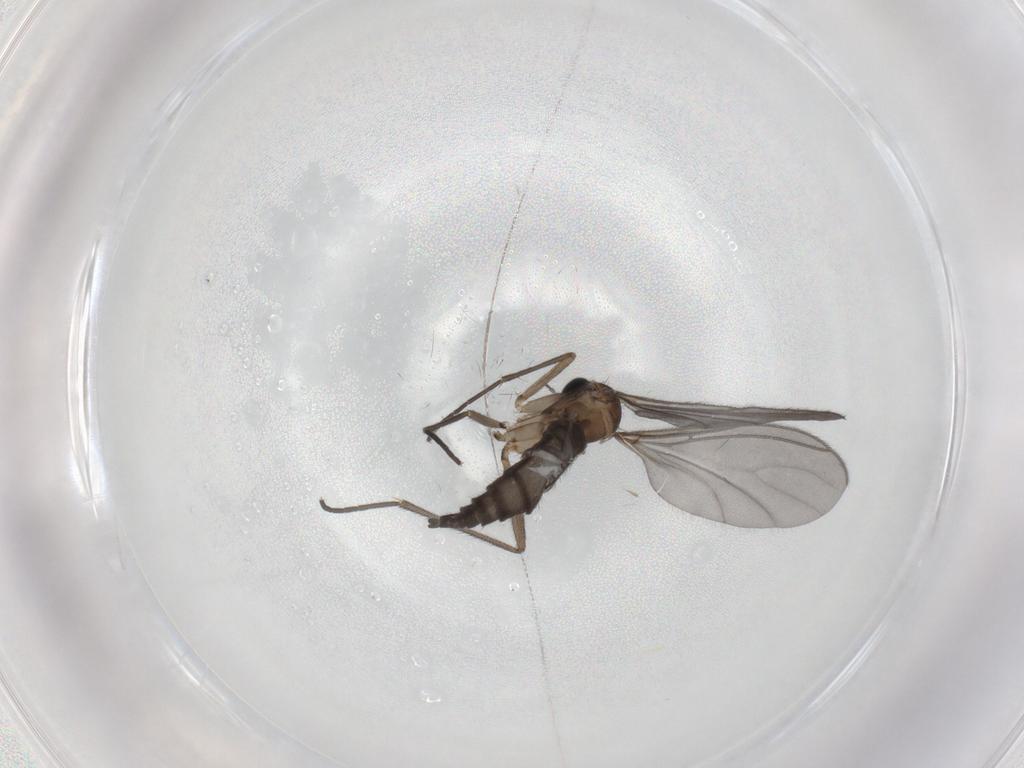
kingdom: Animalia
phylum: Arthropoda
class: Insecta
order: Diptera
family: Sciaridae
